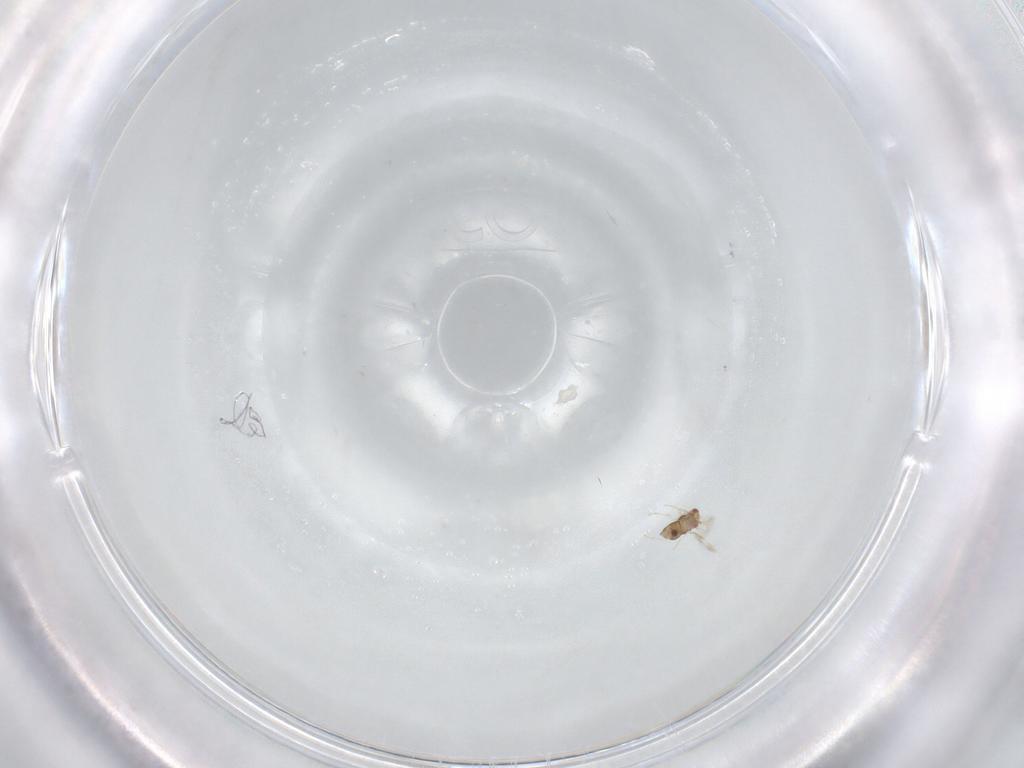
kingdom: Animalia
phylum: Arthropoda
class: Insecta
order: Hymenoptera
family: Aphelinidae
